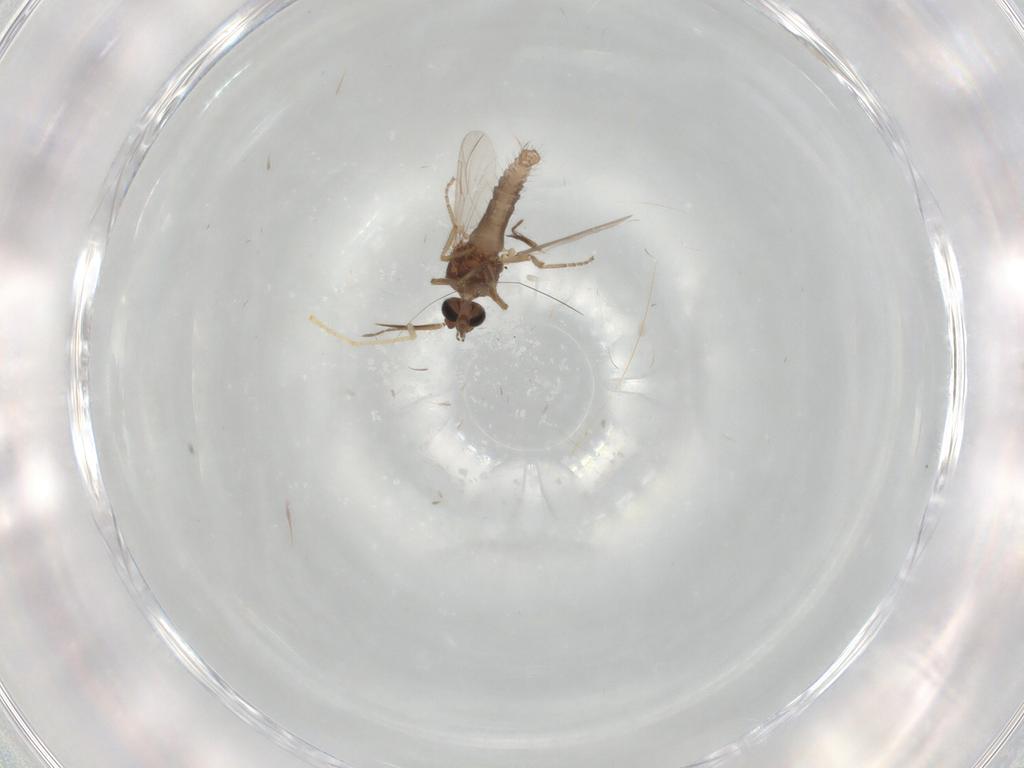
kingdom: Animalia
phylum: Arthropoda
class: Insecta
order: Diptera
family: Ceratopogonidae
